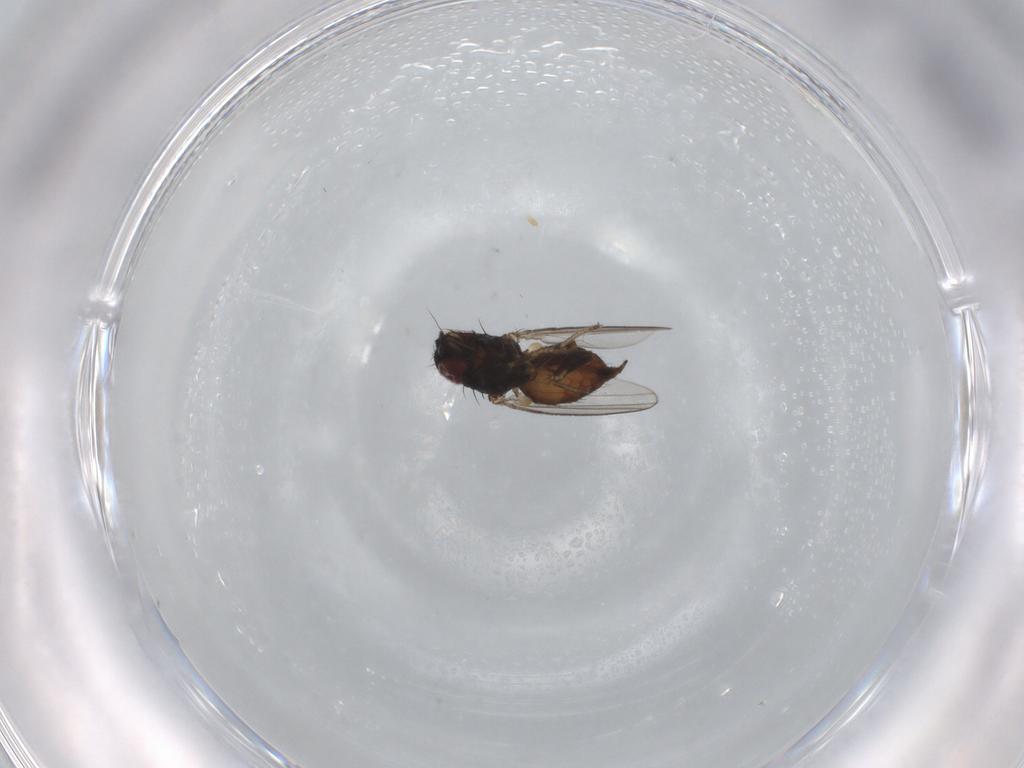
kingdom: Animalia
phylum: Arthropoda
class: Insecta
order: Diptera
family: Milichiidae
